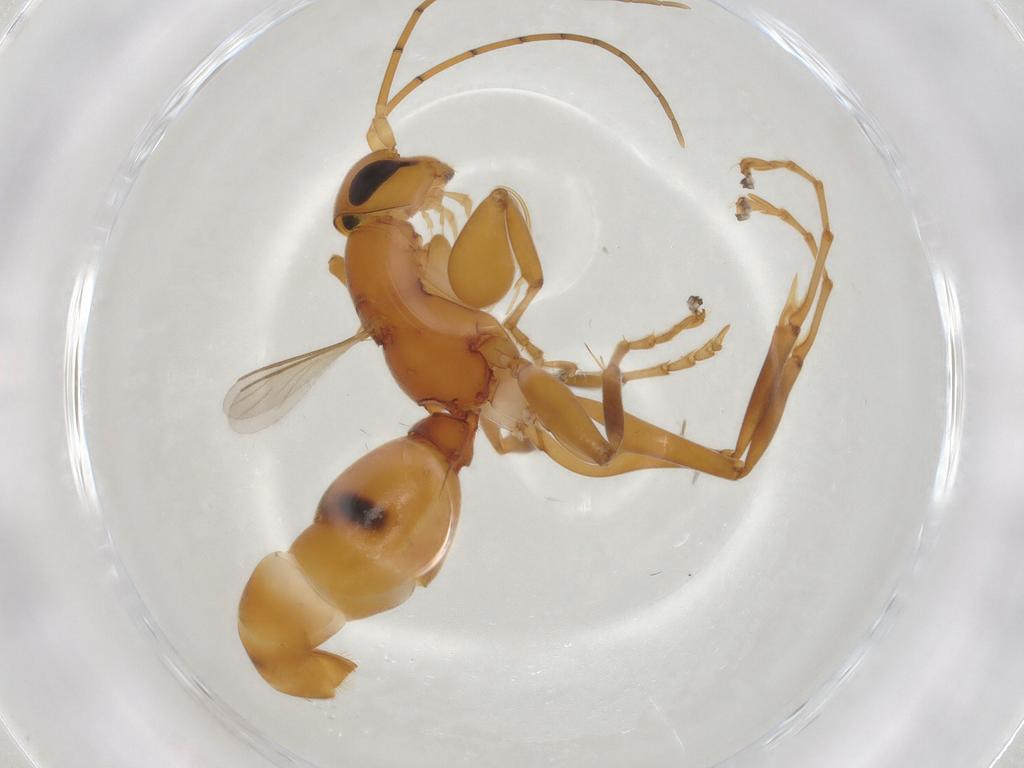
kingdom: Animalia
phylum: Arthropoda
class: Insecta
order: Hymenoptera
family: Rhopalosomatidae
